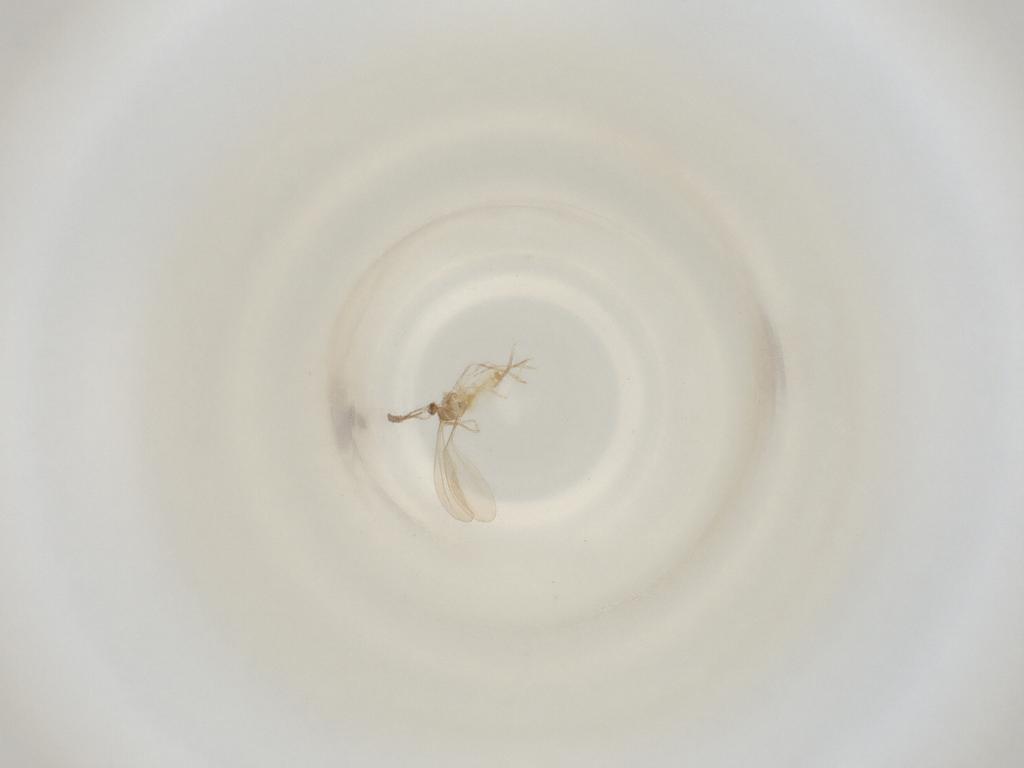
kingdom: Animalia
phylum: Arthropoda
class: Insecta
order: Diptera
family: Cecidomyiidae
